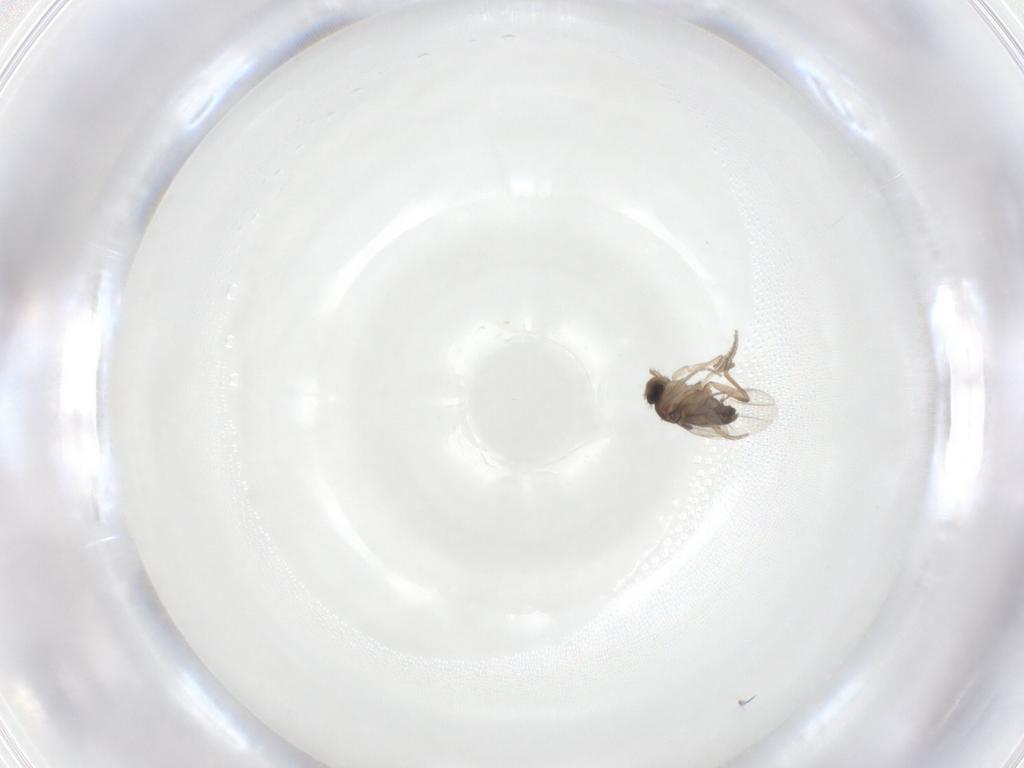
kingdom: Animalia
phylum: Arthropoda
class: Insecta
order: Diptera
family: Phoridae
